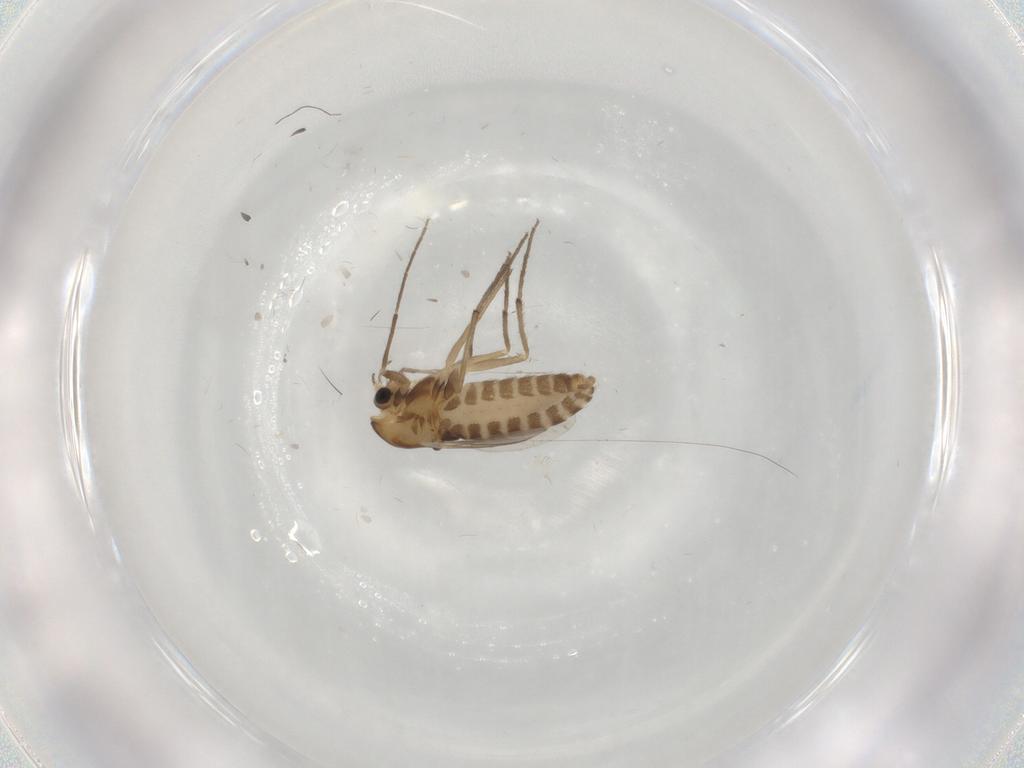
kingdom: Animalia
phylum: Arthropoda
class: Insecta
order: Diptera
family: Chironomidae
